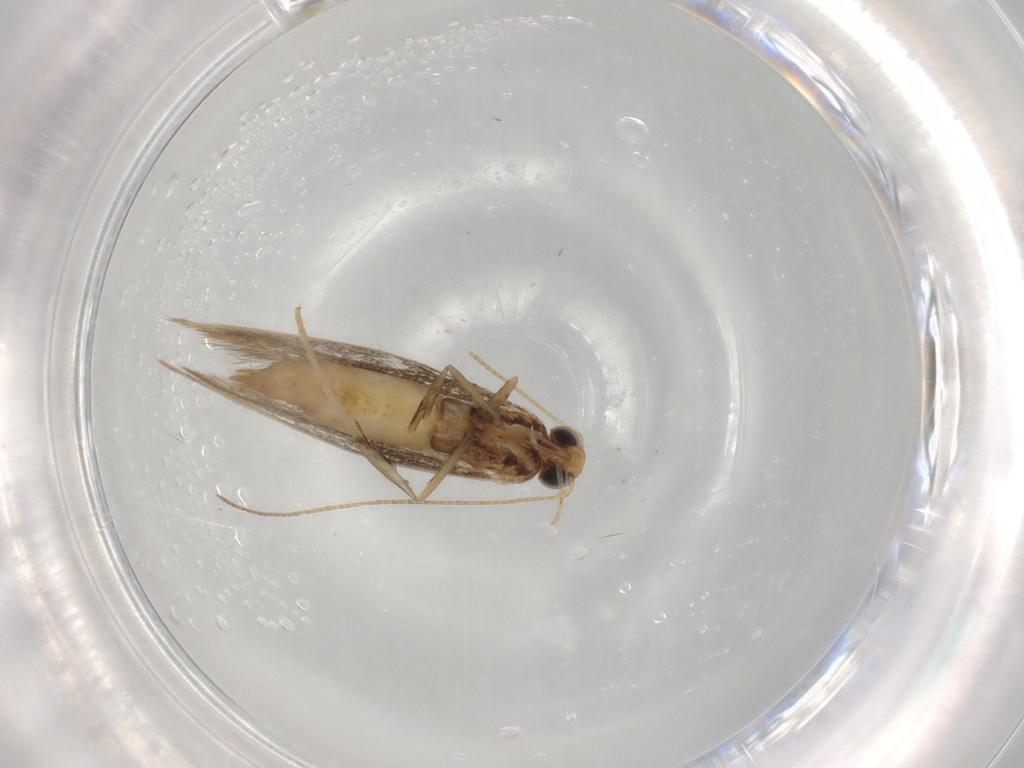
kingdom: Animalia
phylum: Arthropoda
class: Insecta
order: Lepidoptera
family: Gracillariidae
